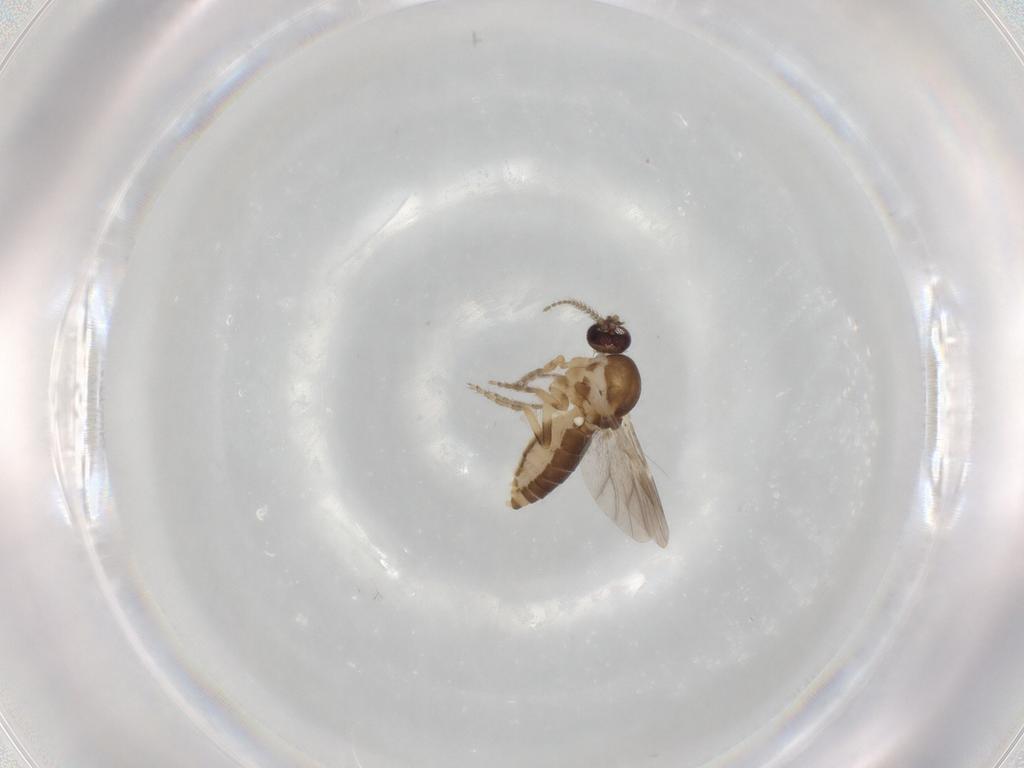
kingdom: Animalia
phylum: Arthropoda
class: Insecta
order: Diptera
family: Ceratopogonidae
